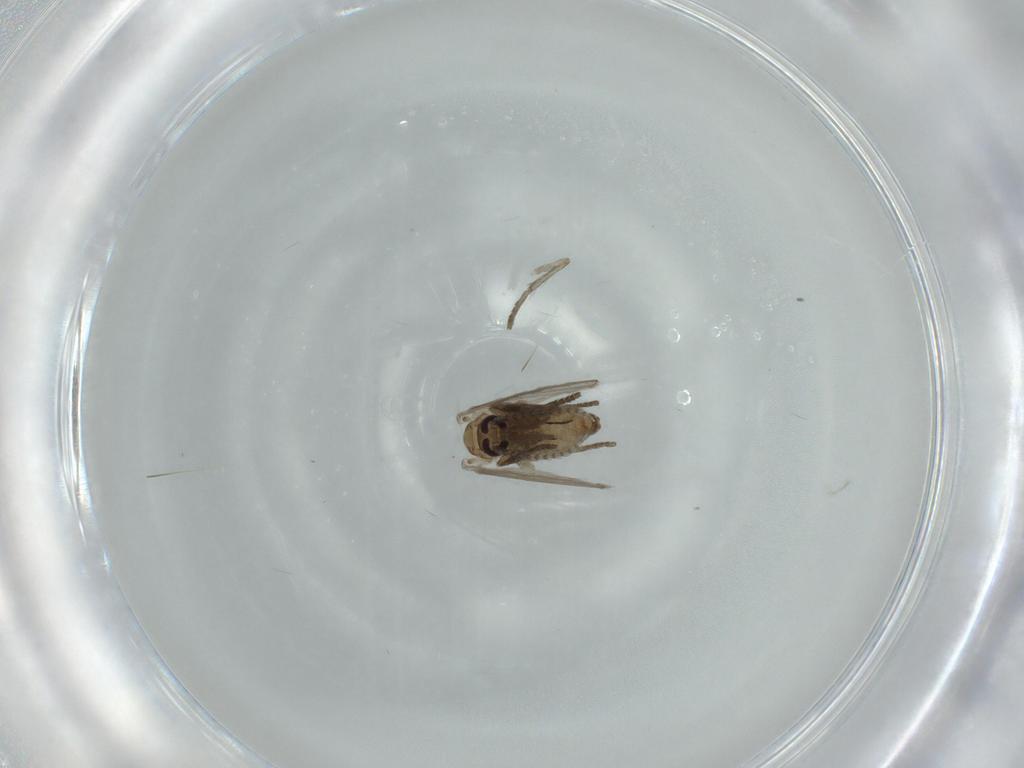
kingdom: Animalia
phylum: Arthropoda
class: Insecta
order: Diptera
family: Psychodidae
